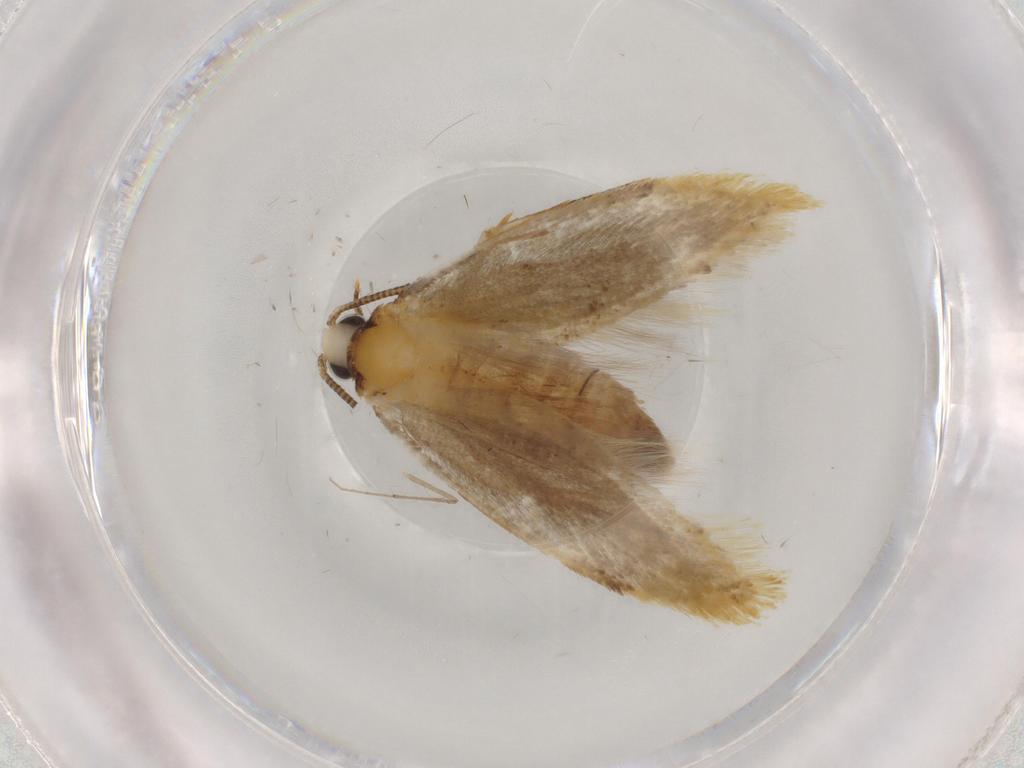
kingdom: Animalia
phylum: Arthropoda
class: Insecta
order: Lepidoptera
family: Tineidae
